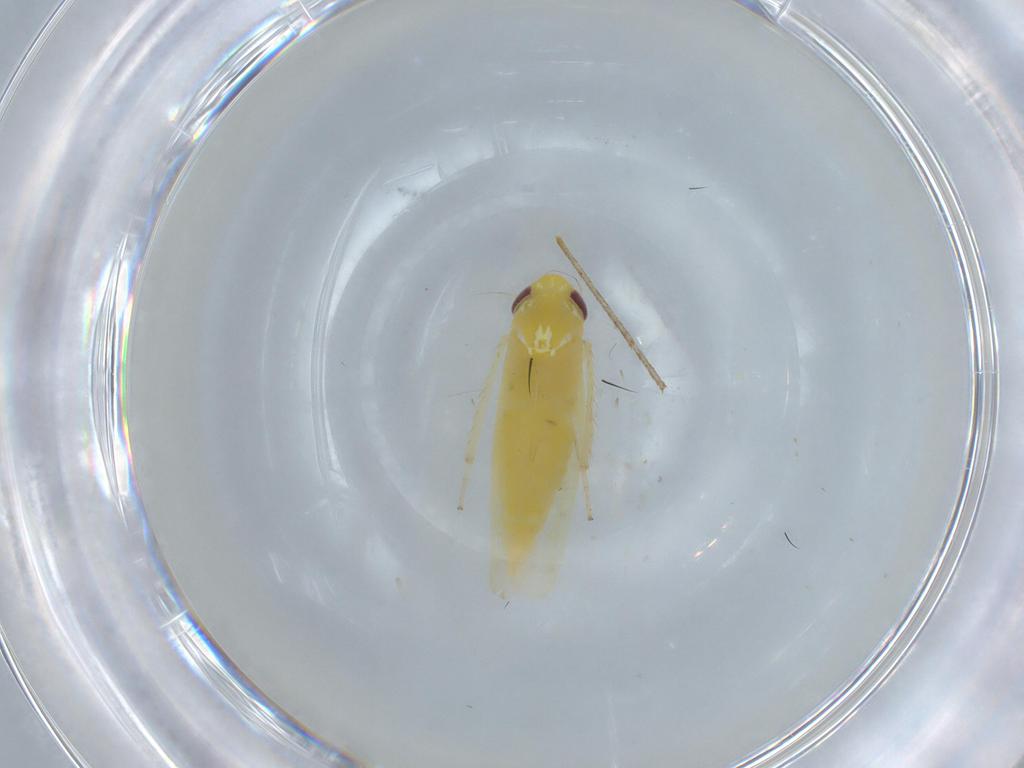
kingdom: Animalia
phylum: Arthropoda
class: Insecta
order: Hemiptera
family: Cicadellidae
